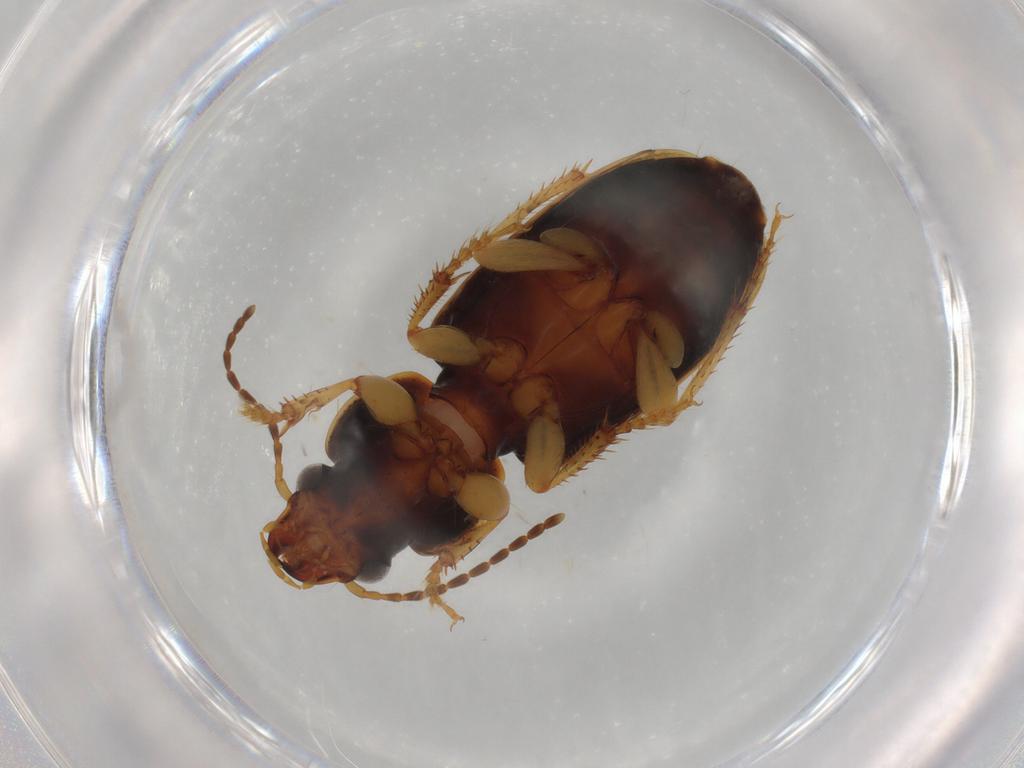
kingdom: Animalia
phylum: Arthropoda
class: Insecta
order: Coleoptera
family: Carabidae
